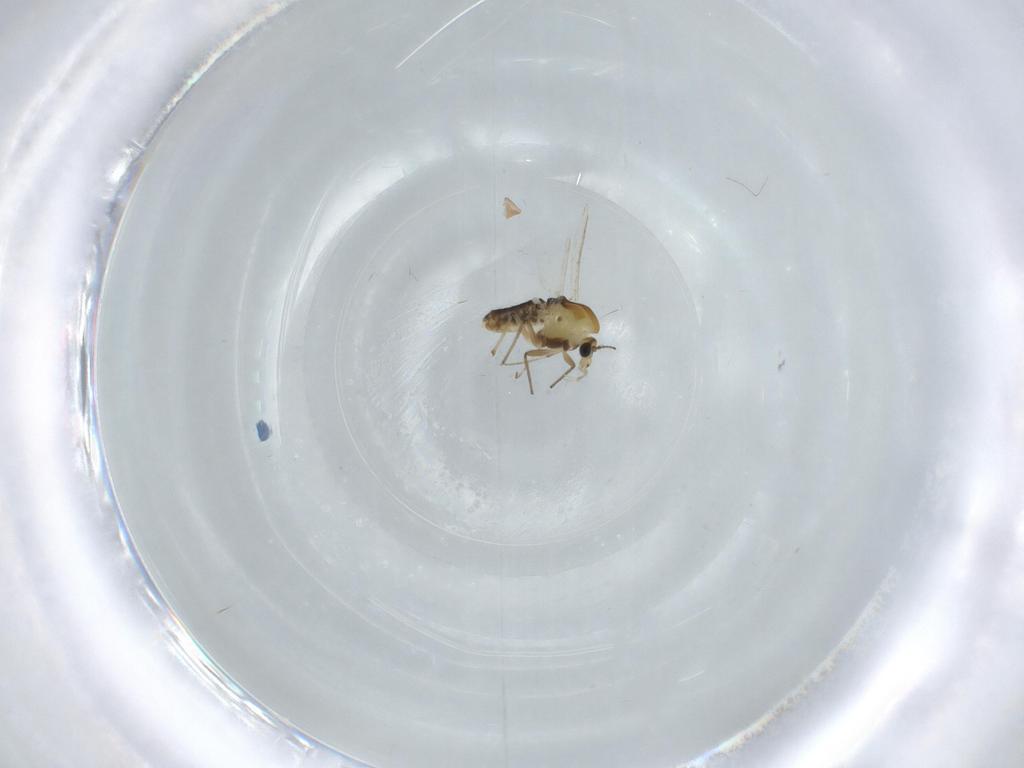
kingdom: Animalia
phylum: Arthropoda
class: Insecta
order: Diptera
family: Chironomidae
